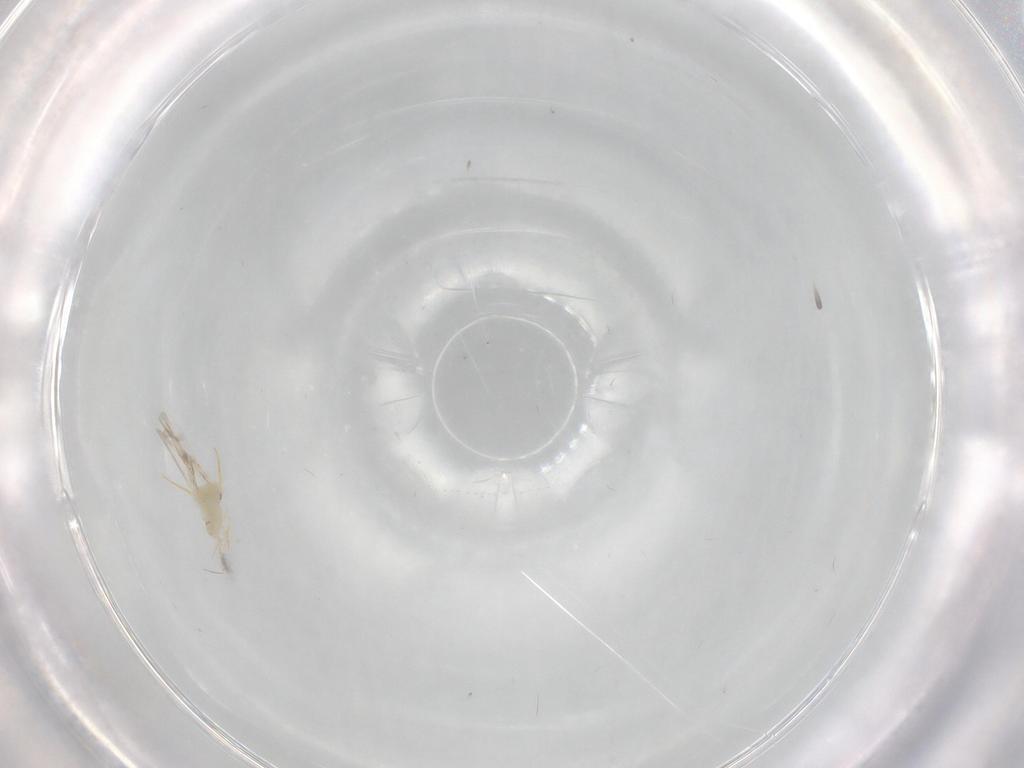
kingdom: Animalia
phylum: Arthropoda
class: Insecta
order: Hemiptera
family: Aleyrodidae
